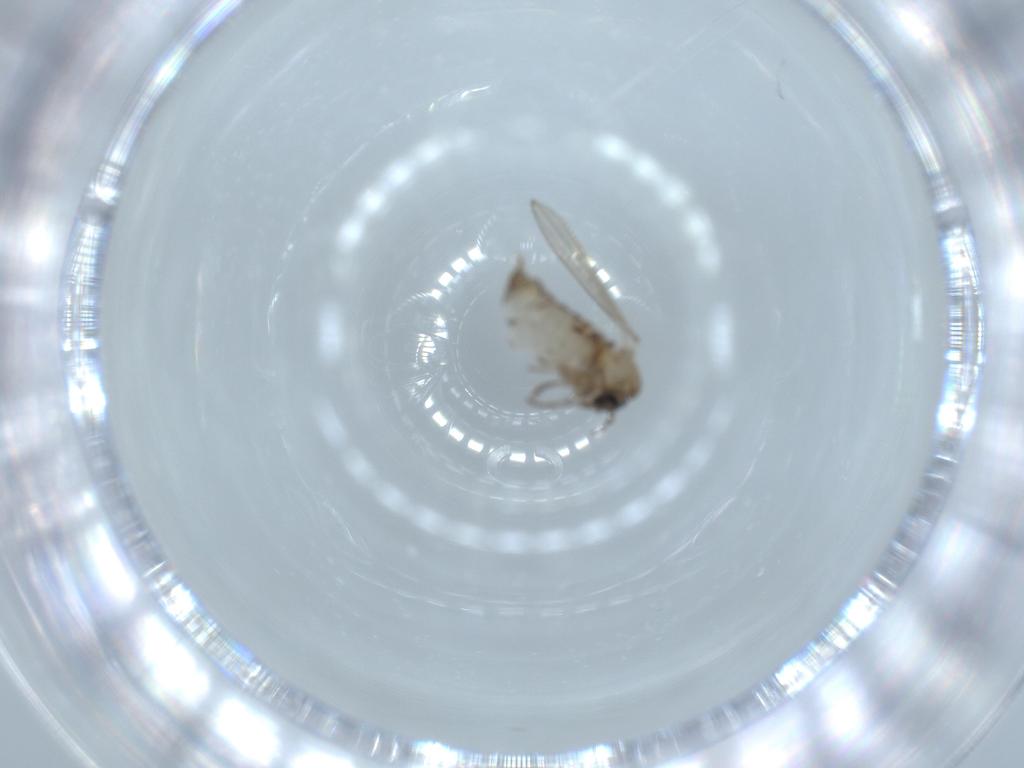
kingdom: Animalia
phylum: Arthropoda
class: Insecta
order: Diptera
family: Psychodidae
